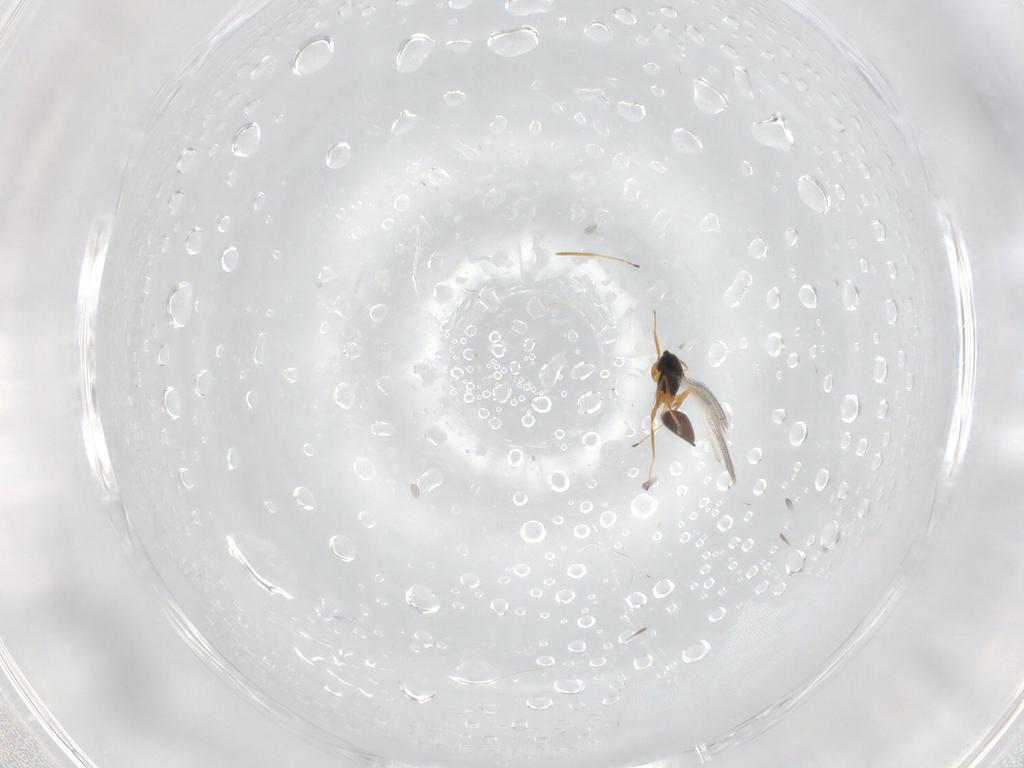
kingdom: Animalia
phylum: Arthropoda
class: Insecta
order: Hymenoptera
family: Mymaridae
